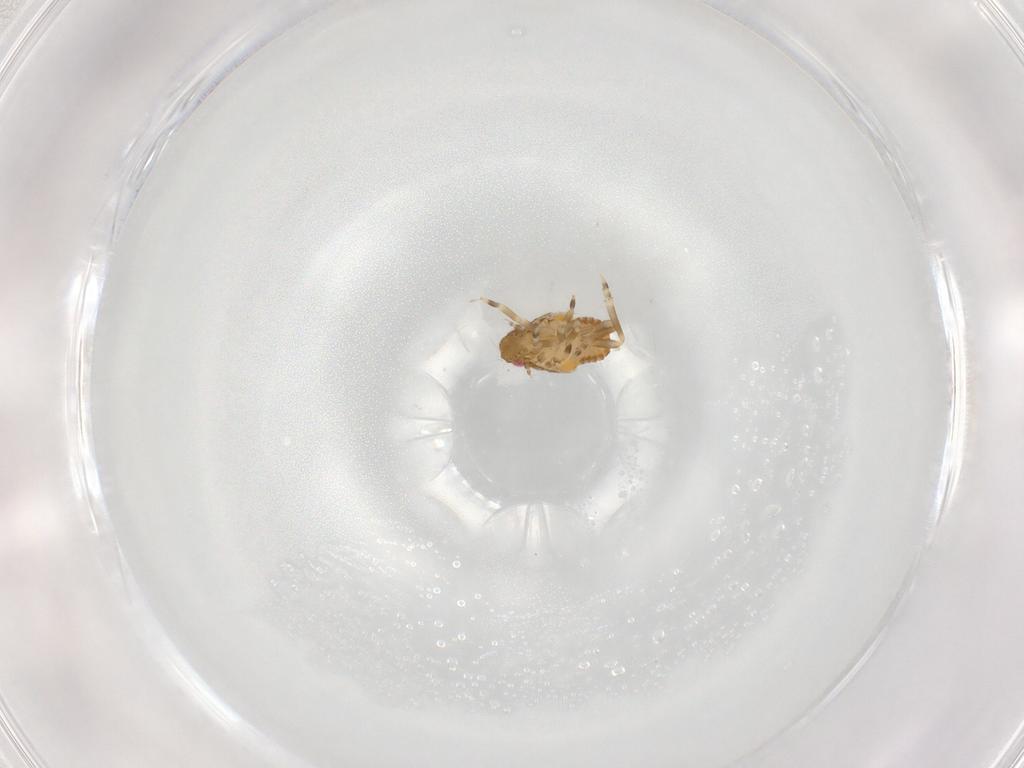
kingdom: Animalia
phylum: Arthropoda
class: Insecta
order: Hemiptera
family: Flatidae
